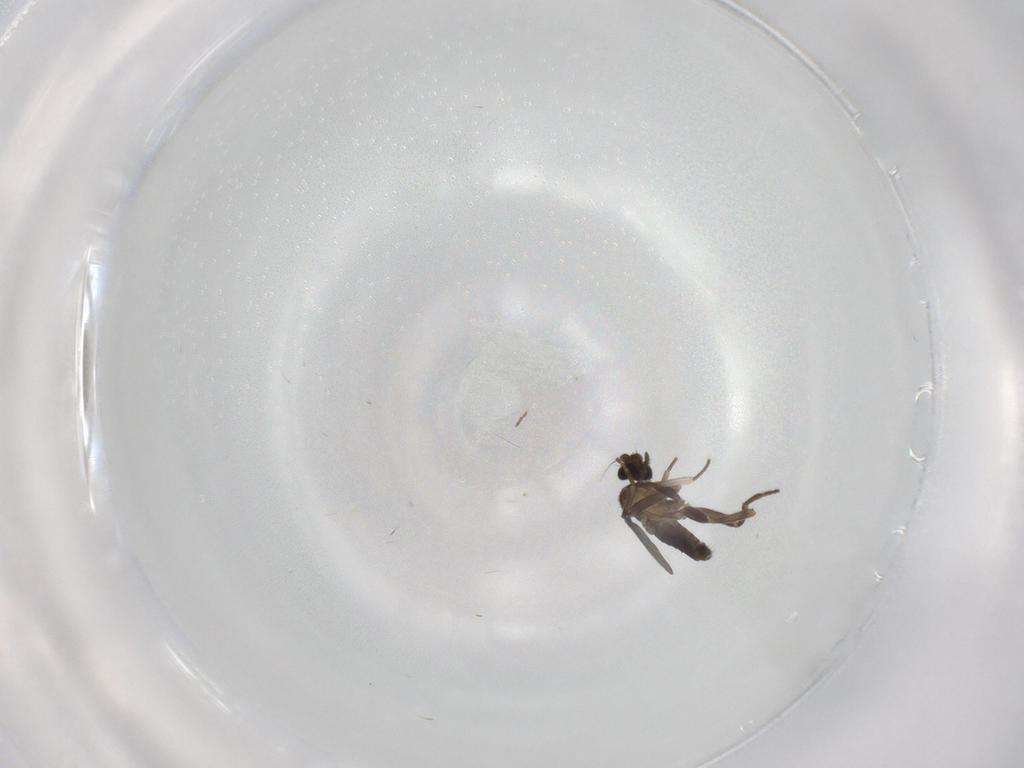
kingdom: Animalia
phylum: Arthropoda
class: Insecta
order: Diptera
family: Phoridae
